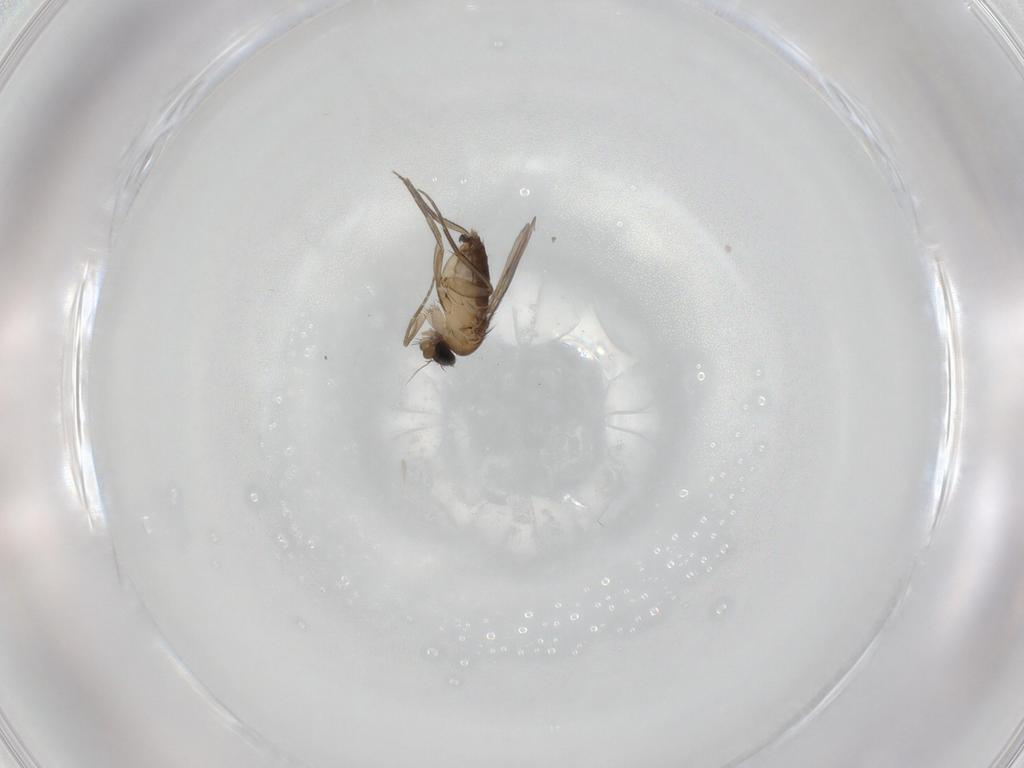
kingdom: Animalia
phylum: Arthropoda
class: Insecta
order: Diptera
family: Phoridae
